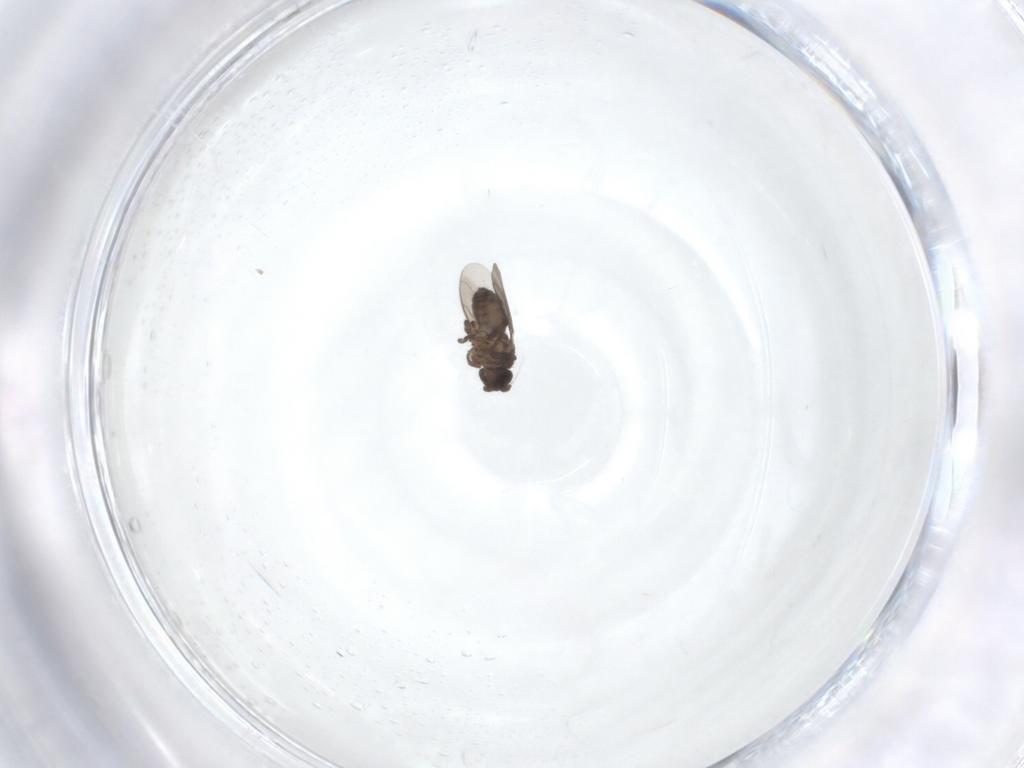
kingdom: Animalia
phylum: Arthropoda
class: Insecta
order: Diptera
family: Sphaeroceridae
